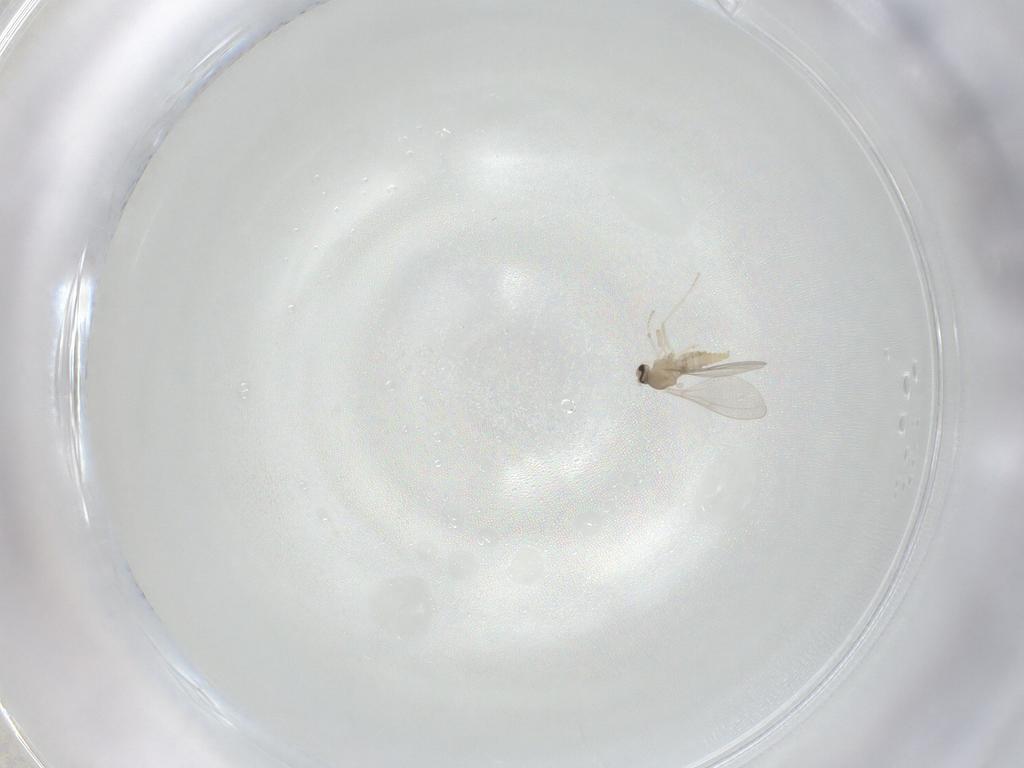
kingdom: Animalia
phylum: Arthropoda
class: Insecta
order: Diptera
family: Cecidomyiidae
